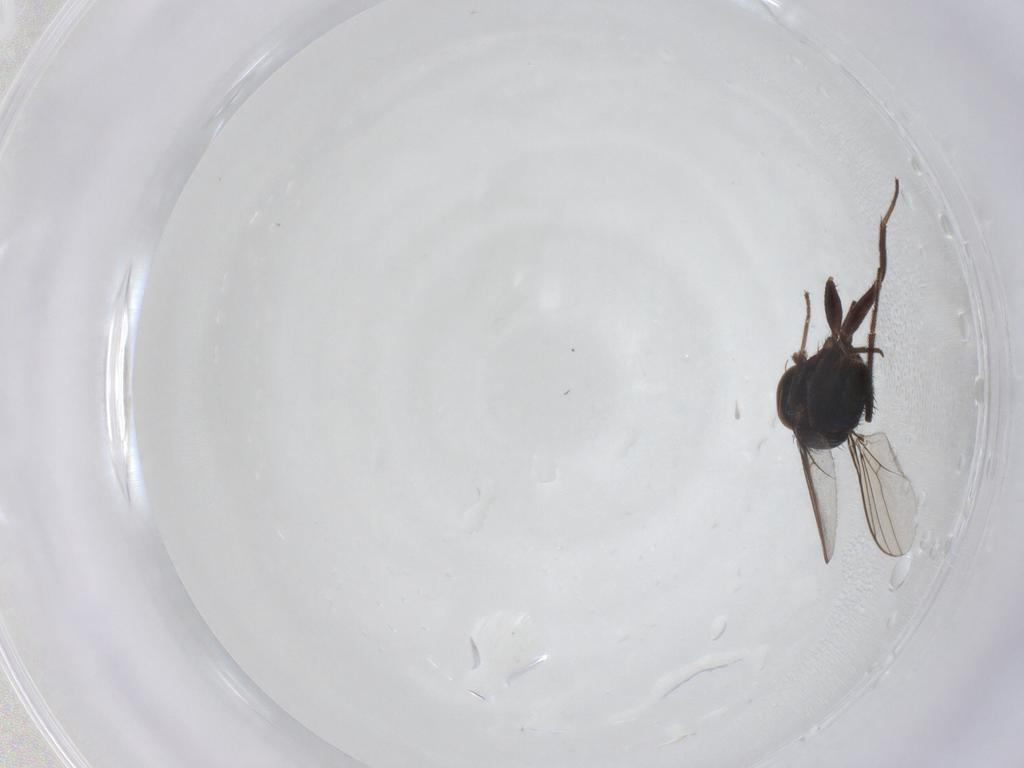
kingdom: Animalia
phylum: Arthropoda
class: Insecta
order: Diptera
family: Dolichopodidae
